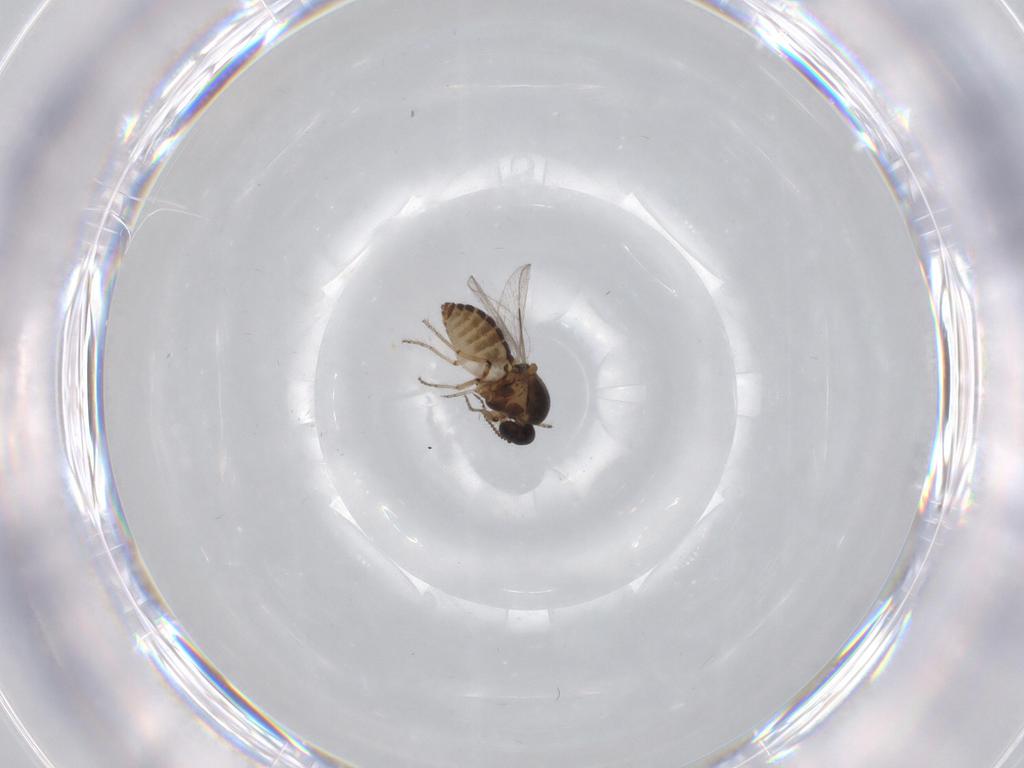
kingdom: Animalia
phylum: Arthropoda
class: Insecta
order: Diptera
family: Ceratopogonidae
